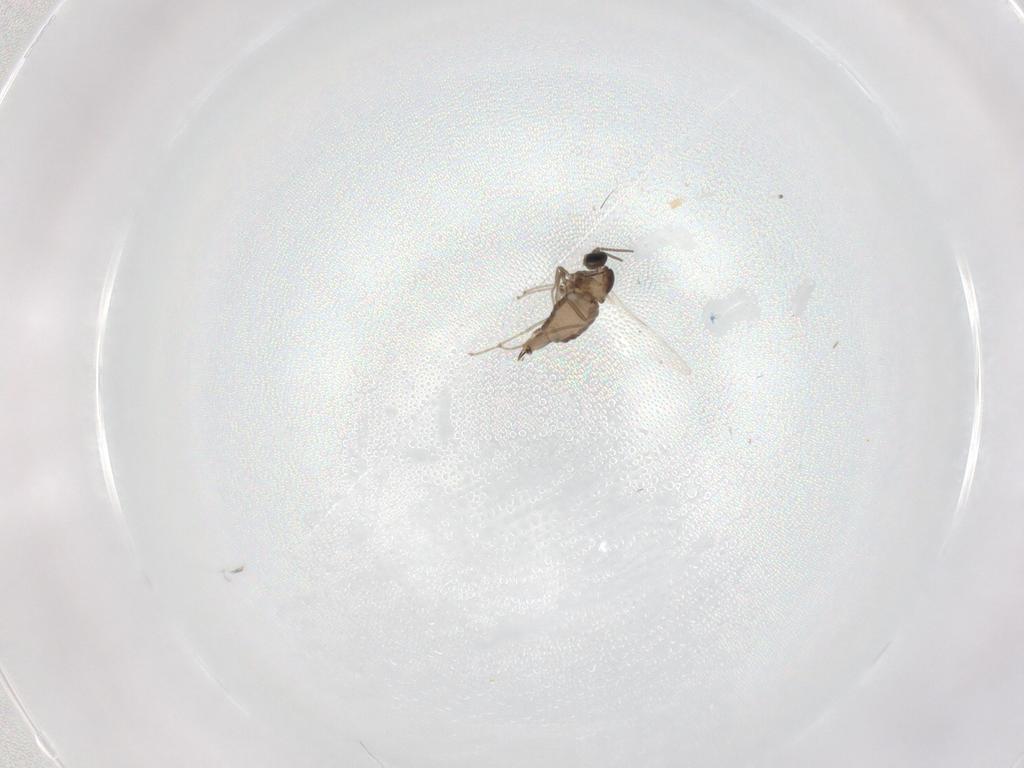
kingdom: Animalia
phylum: Arthropoda
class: Insecta
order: Diptera
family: Cecidomyiidae
